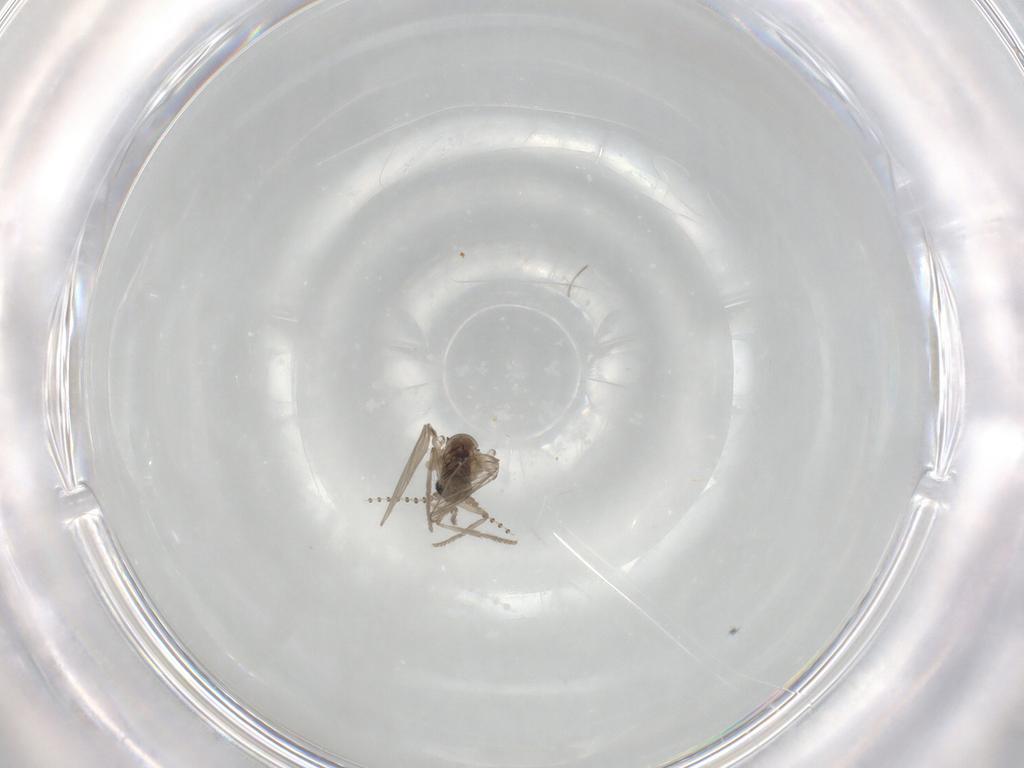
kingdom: Animalia
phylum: Arthropoda
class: Insecta
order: Diptera
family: Psychodidae
